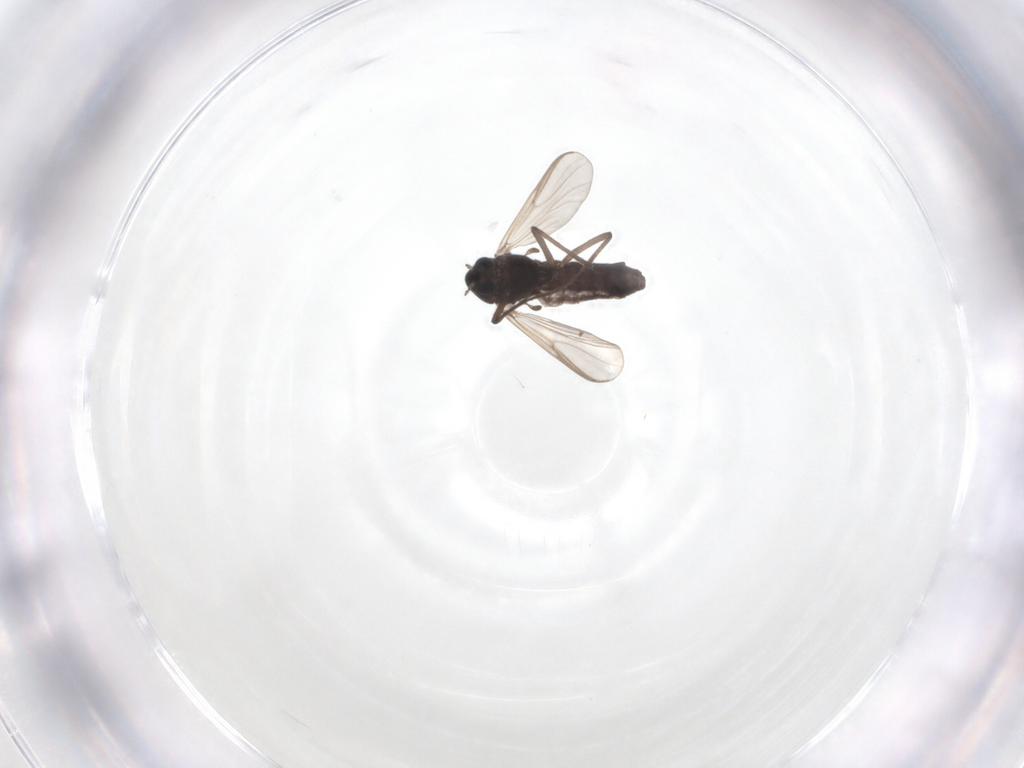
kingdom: Animalia
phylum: Arthropoda
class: Insecta
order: Diptera
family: Chironomidae
